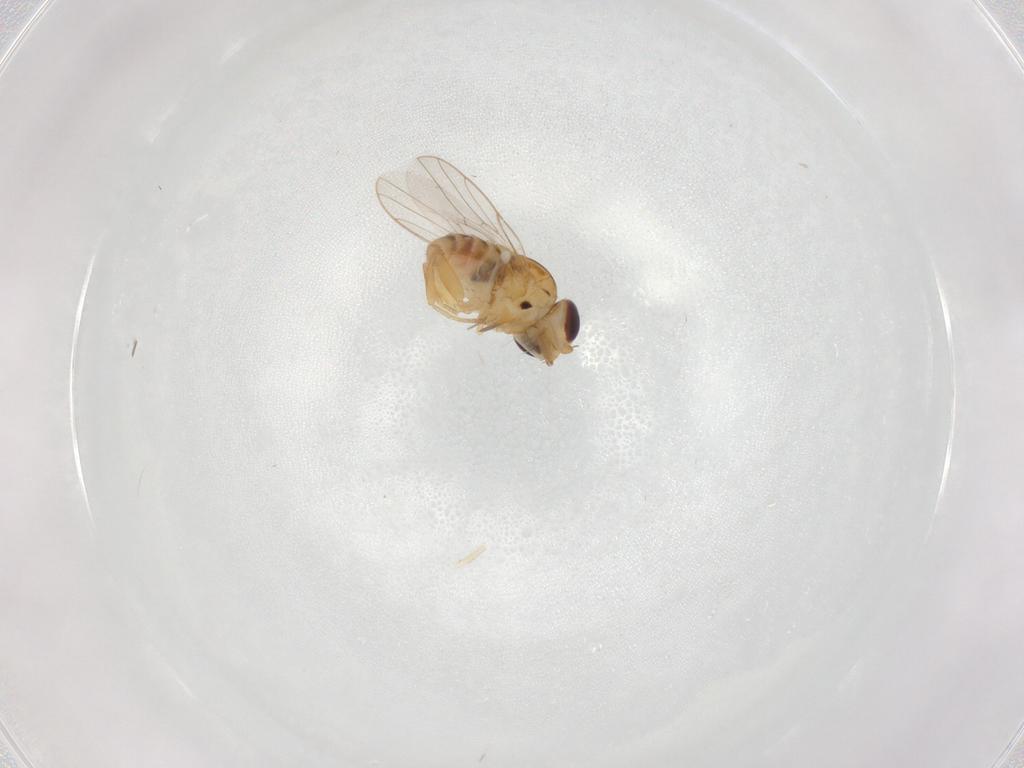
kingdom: Animalia
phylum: Arthropoda
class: Insecta
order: Diptera
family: Chloropidae
